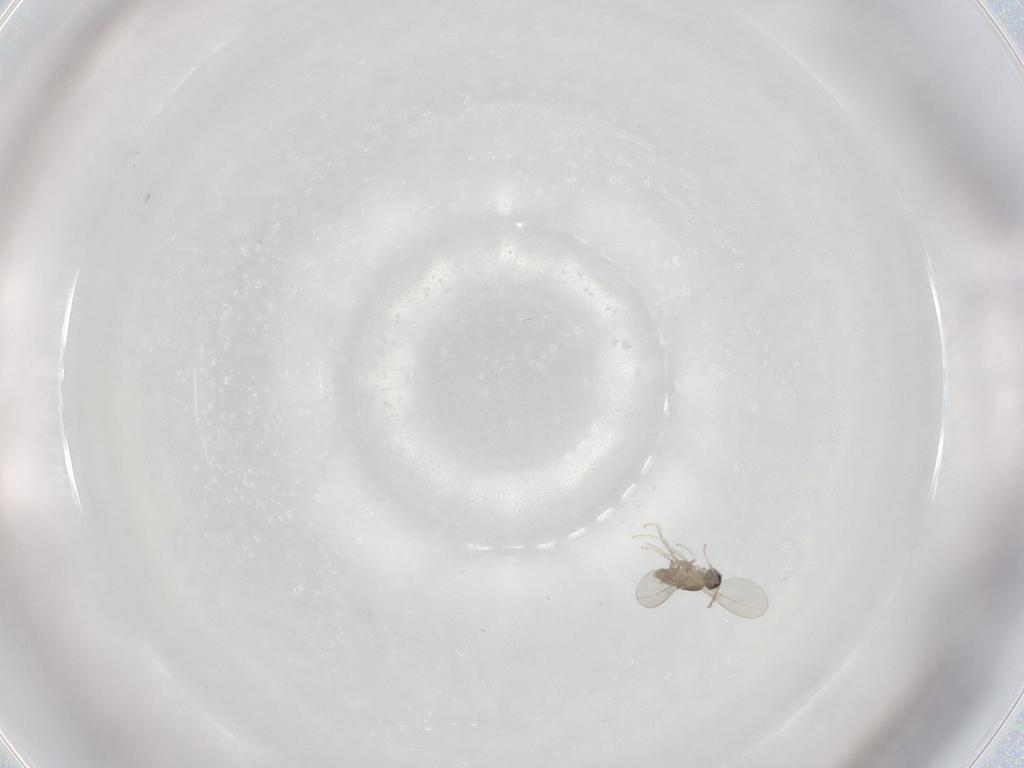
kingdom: Animalia
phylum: Arthropoda
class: Insecta
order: Diptera
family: Cecidomyiidae
